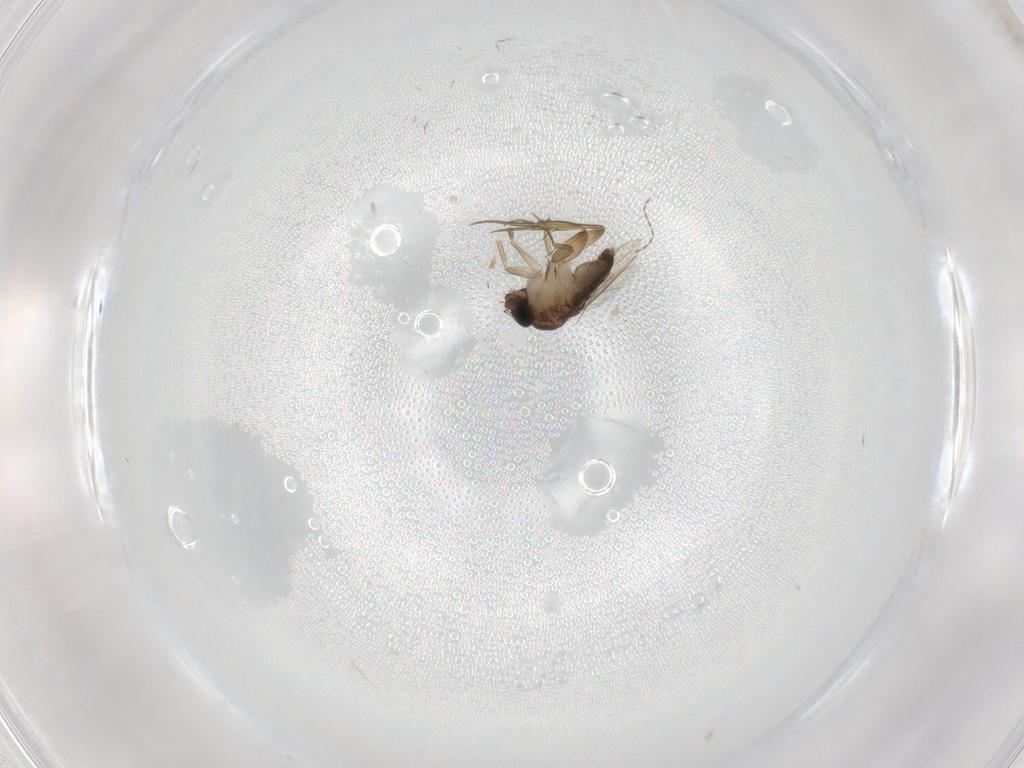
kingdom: Animalia
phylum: Arthropoda
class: Insecta
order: Diptera
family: Phoridae
